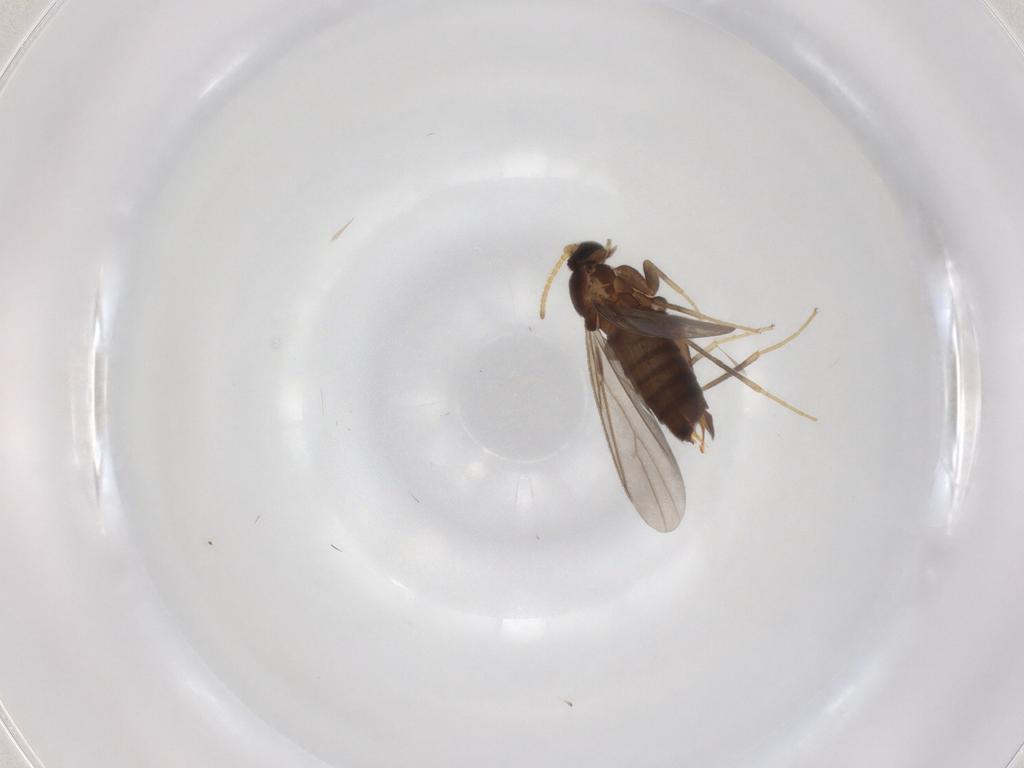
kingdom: Animalia
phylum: Arthropoda
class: Insecta
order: Diptera
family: Scatopsidae
